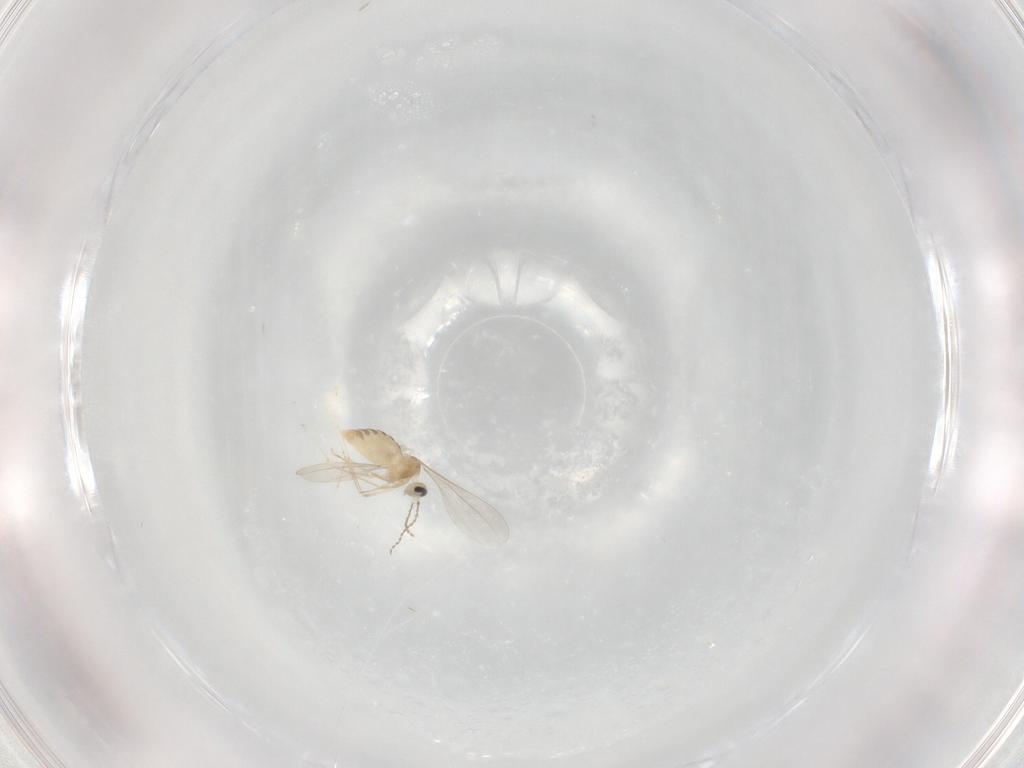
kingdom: Animalia
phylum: Arthropoda
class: Insecta
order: Diptera
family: Cecidomyiidae
